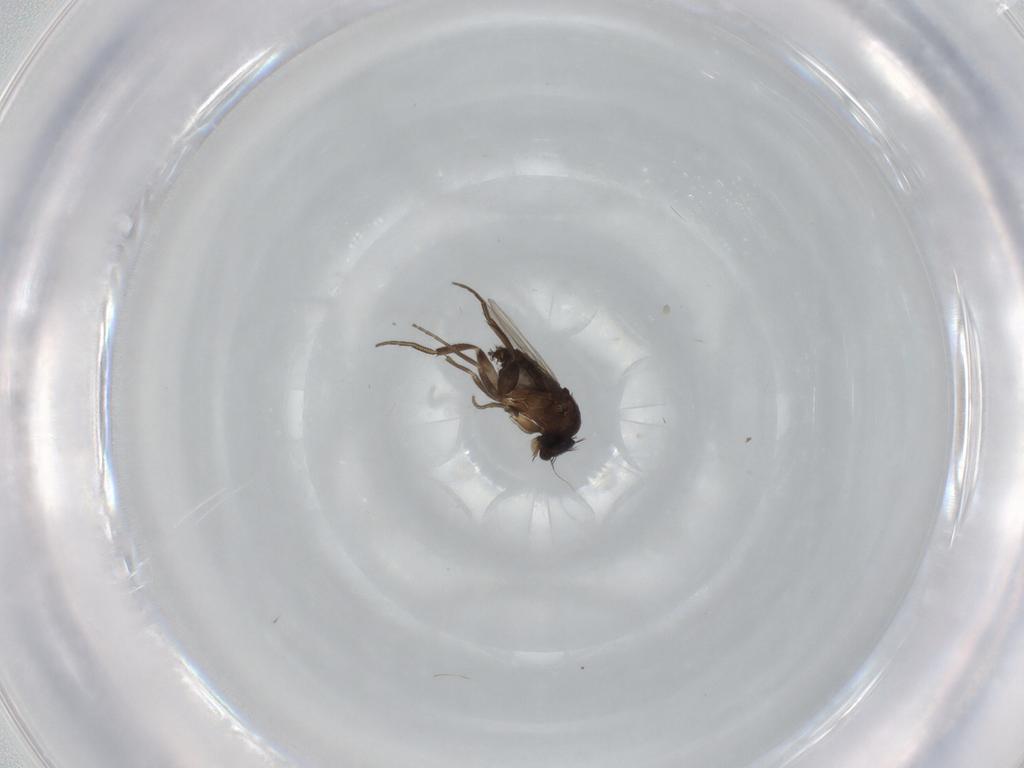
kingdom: Animalia
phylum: Arthropoda
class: Insecta
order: Diptera
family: Phoridae
